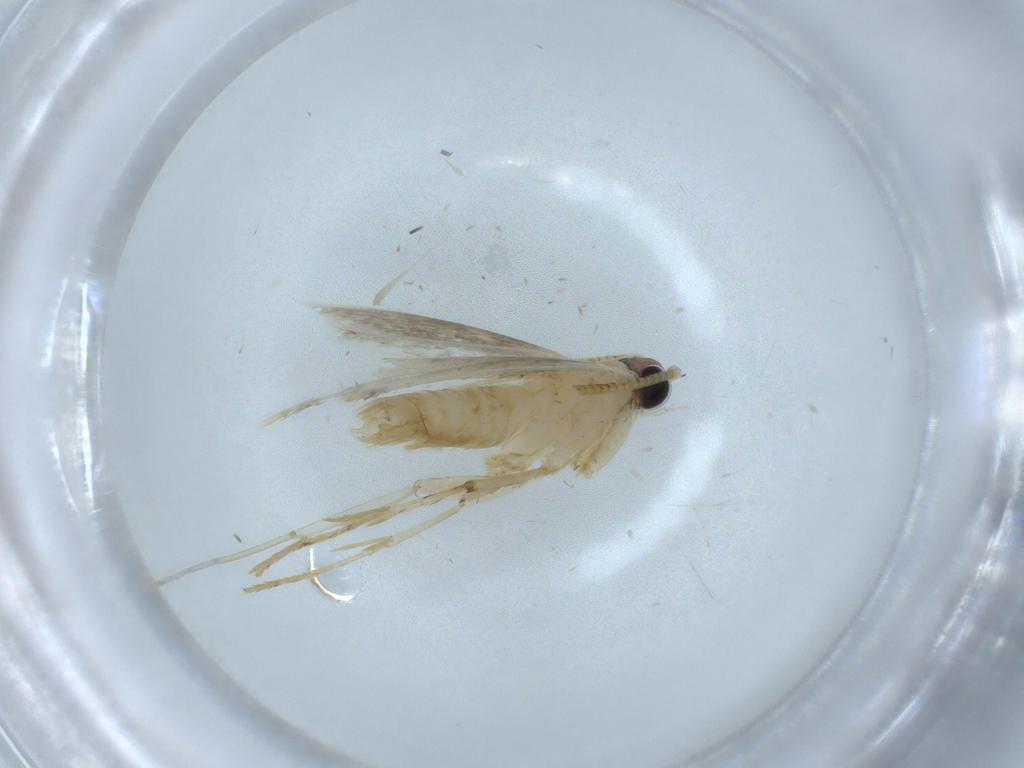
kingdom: Animalia
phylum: Arthropoda
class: Insecta
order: Lepidoptera
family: Tineidae
